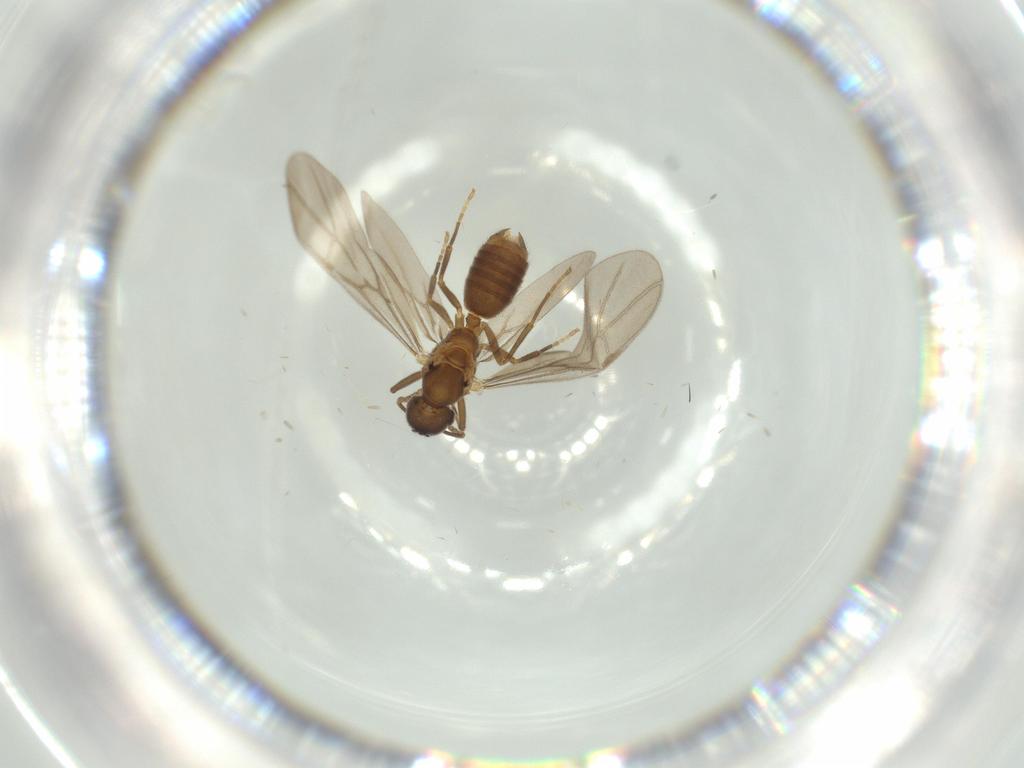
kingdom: Animalia
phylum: Arthropoda
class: Insecta
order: Hymenoptera
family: Formicidae
